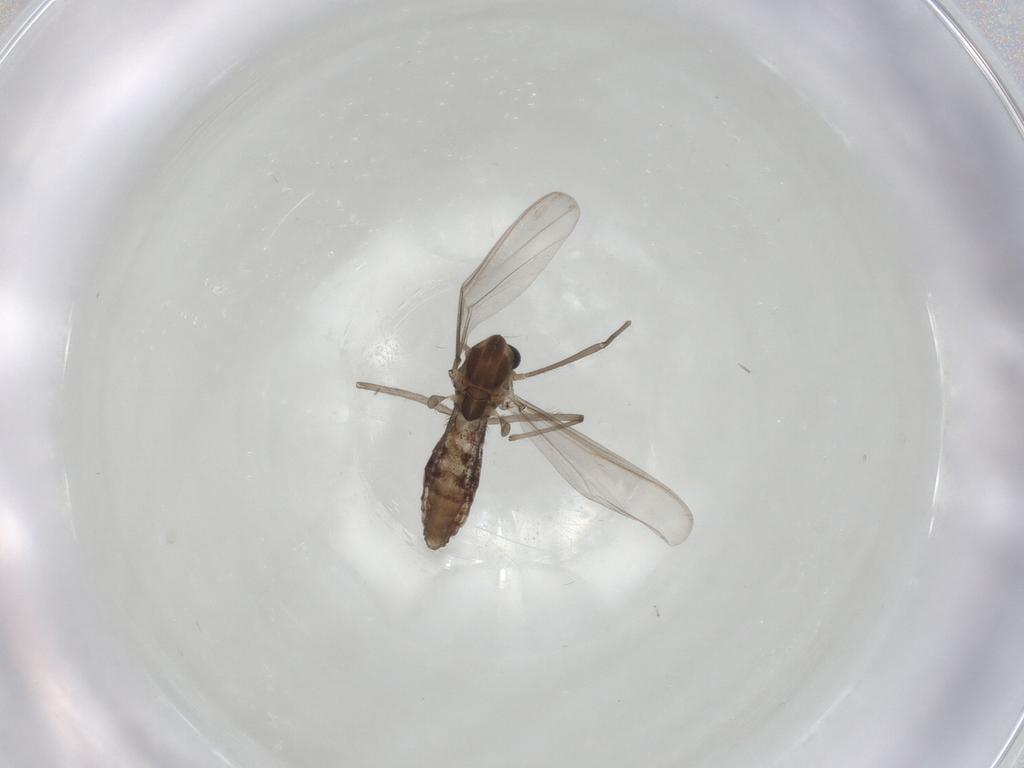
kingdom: Animalia
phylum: Arthropoda
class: Insecta
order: Diptera
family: Chironomidae
